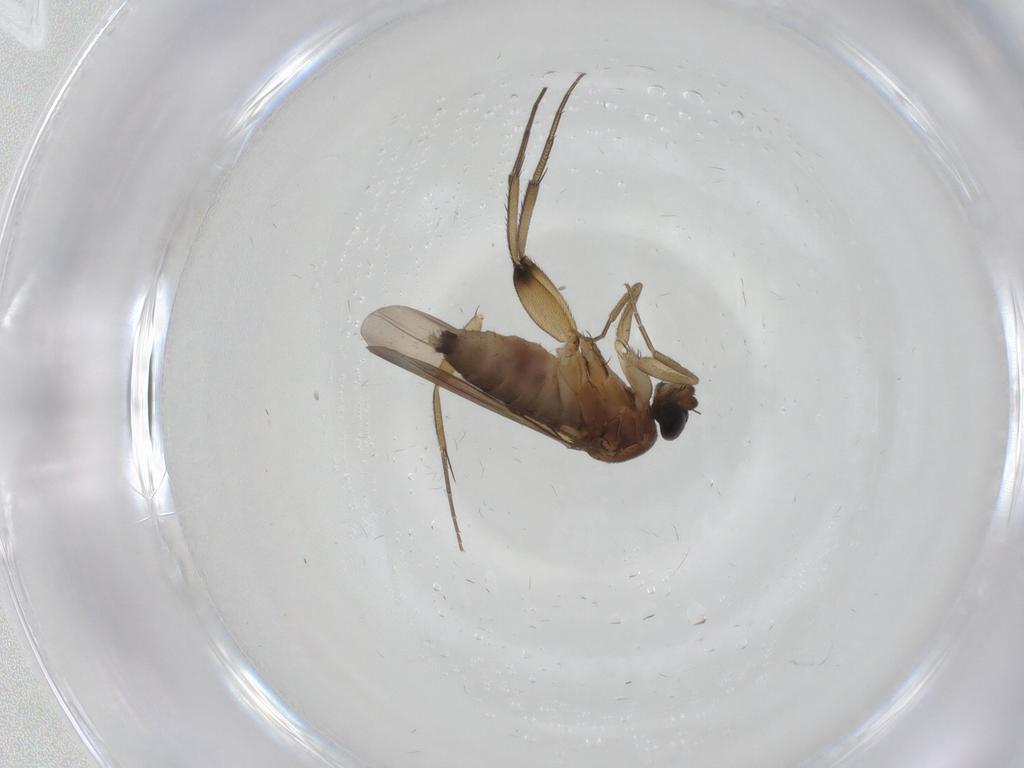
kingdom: Animalia
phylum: Arthropoda
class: Insecta
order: Diptera
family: Phoridae
